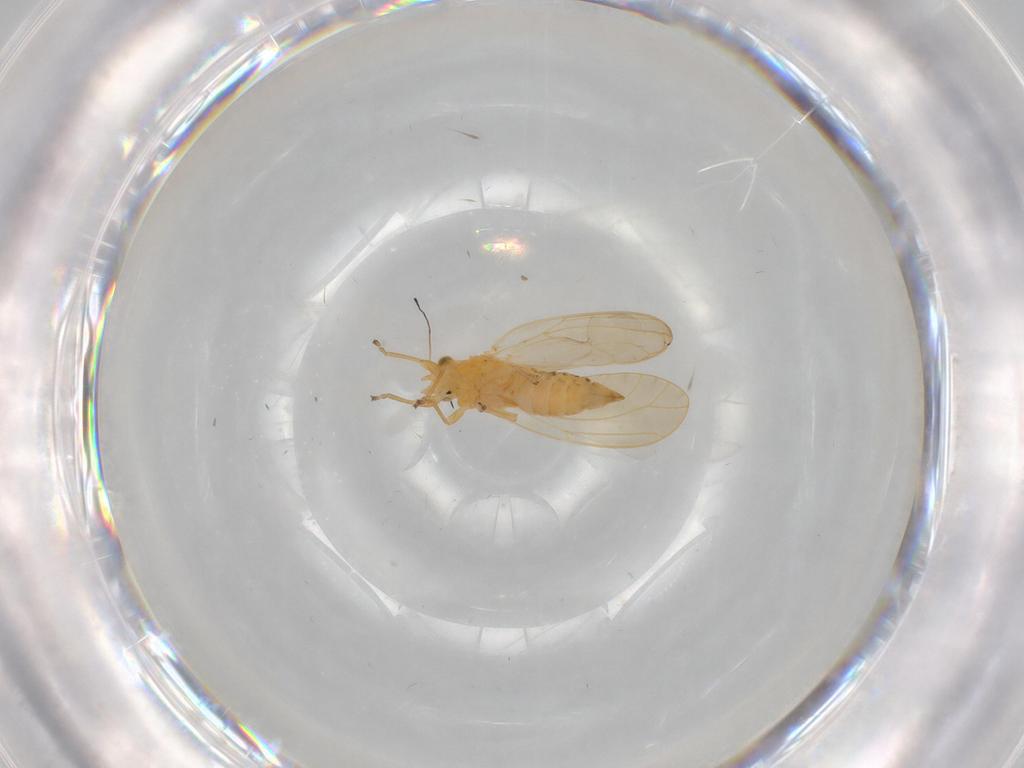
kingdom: Animalia
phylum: Arthropoda
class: Insecta
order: Hemiptera
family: Triozidae
